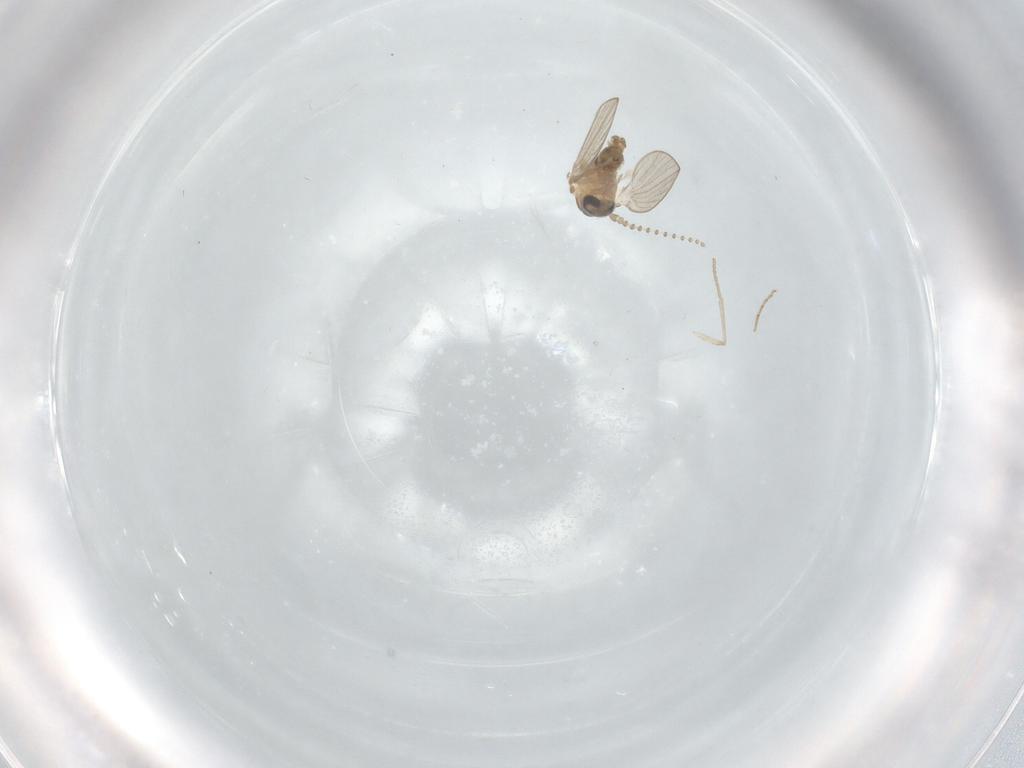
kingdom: Animalia
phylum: Arthropoda
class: Insecta
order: Diptera
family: Psychodidae
